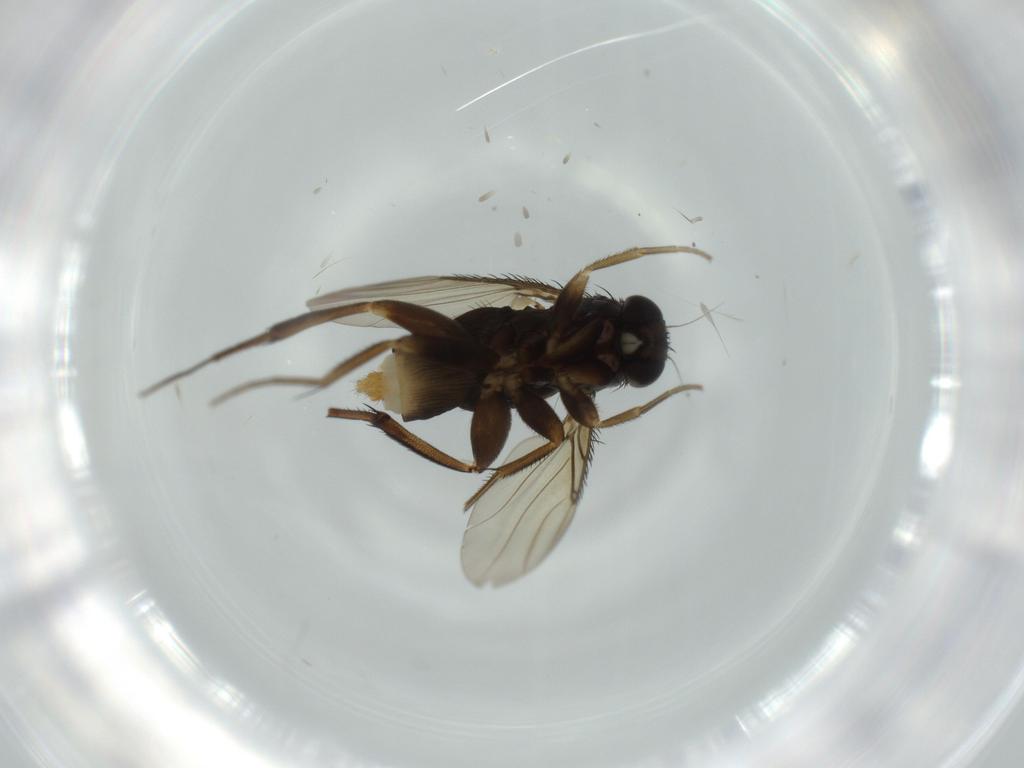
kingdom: Animalia
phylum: Arthropoda
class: Insecta
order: Diptera
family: Phoridae
